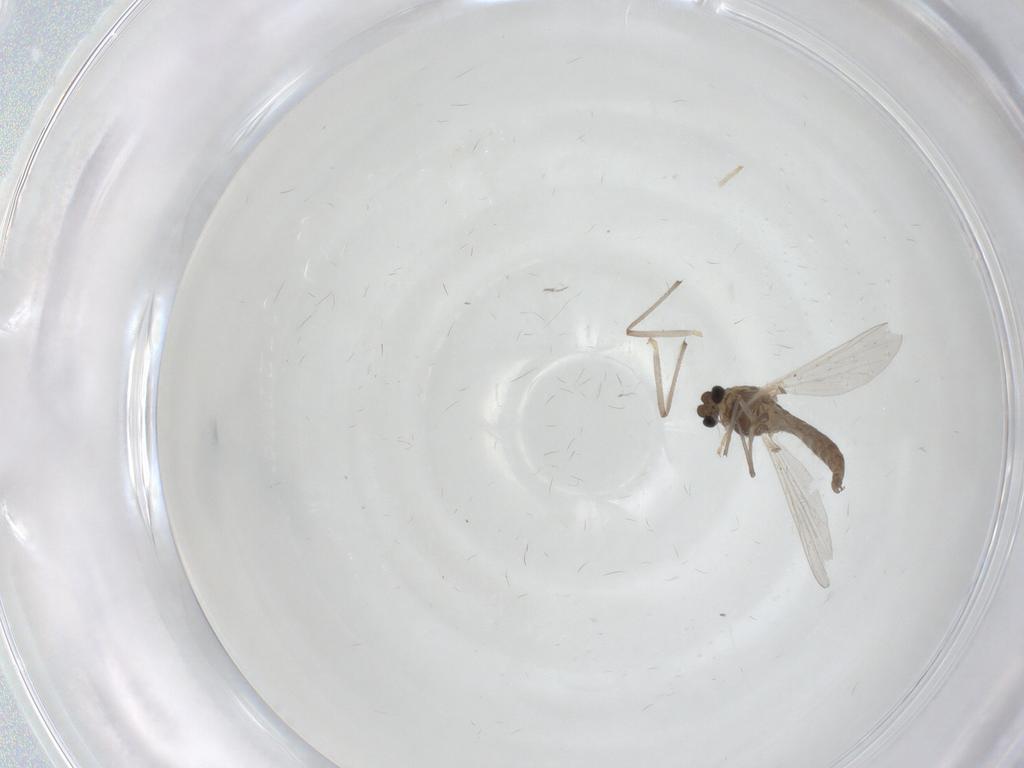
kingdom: Animalia
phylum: Arthropoda
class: Insecta
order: Diptera
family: Chironomidae
